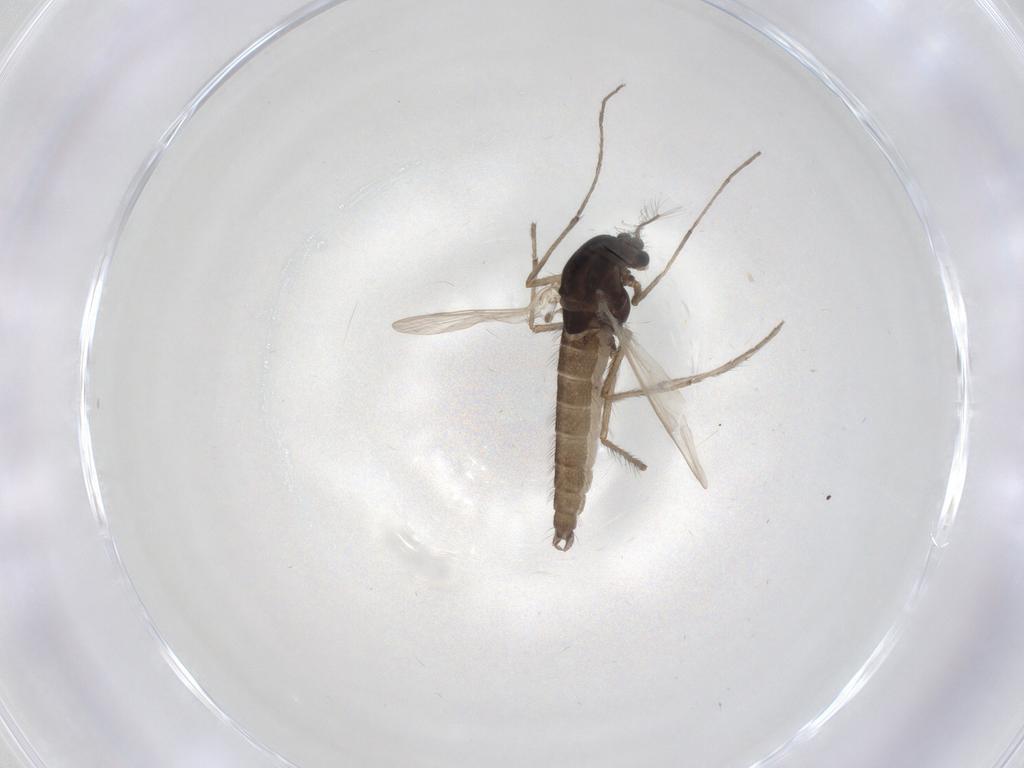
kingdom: Animalia
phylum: Arthropoda
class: Insecta
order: Diptera
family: Chironomidae
